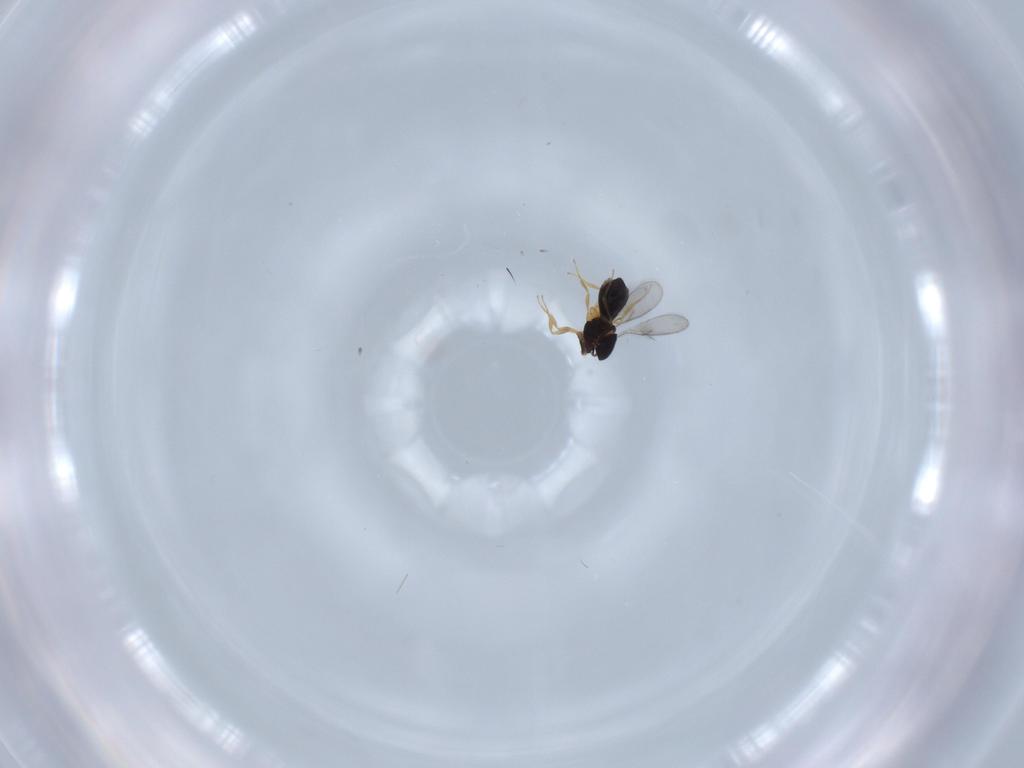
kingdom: Animalia
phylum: Arthropoda
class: Insecta
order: Hymenoptera
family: Scelionidae
